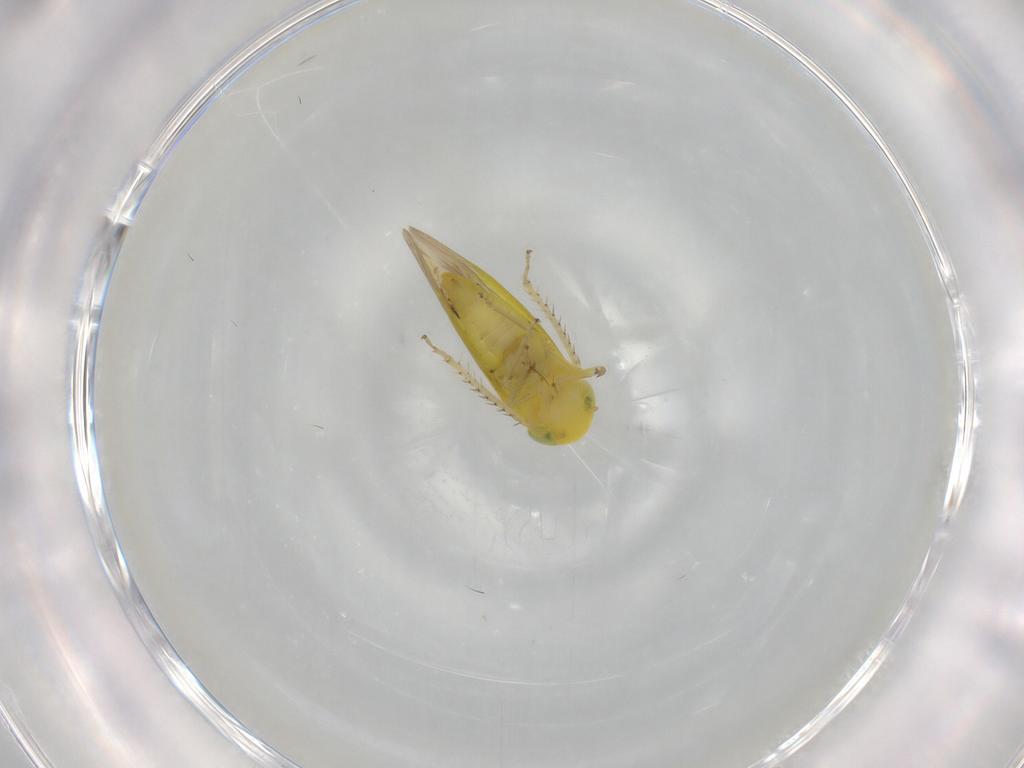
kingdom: Animalia
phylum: Arthropoda
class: Insecta
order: Hemiptera
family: Cicadellidae
